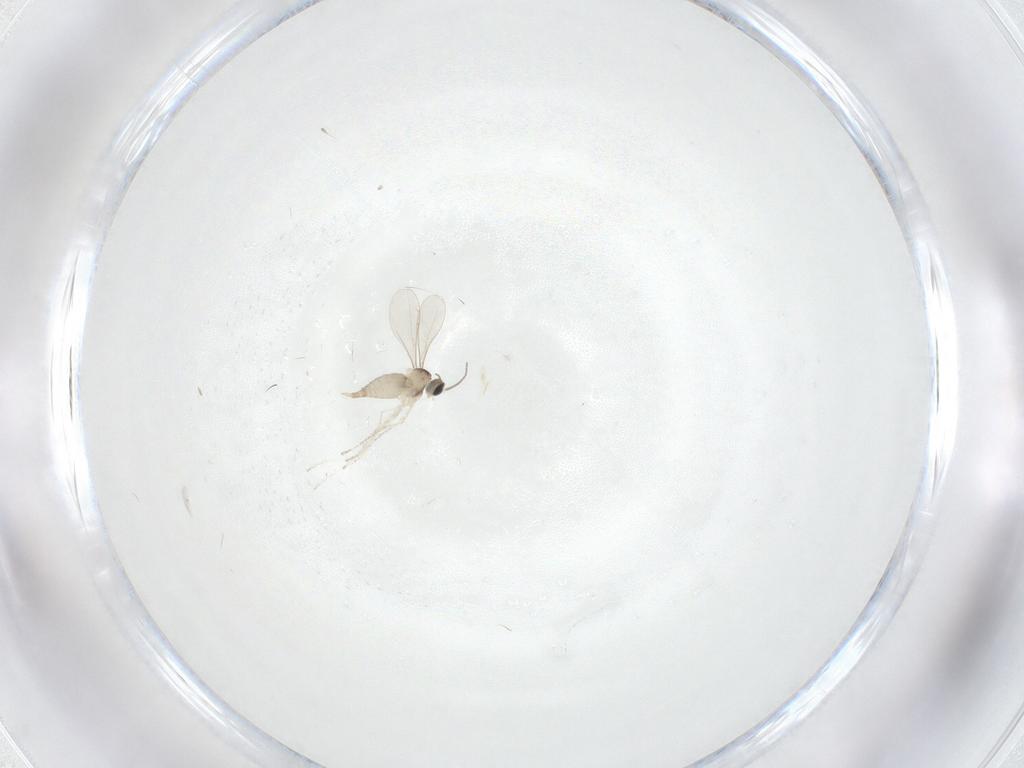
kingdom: Animalia
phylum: Arthropoda
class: Insecta
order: Diptera
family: Cecidomyiidae
